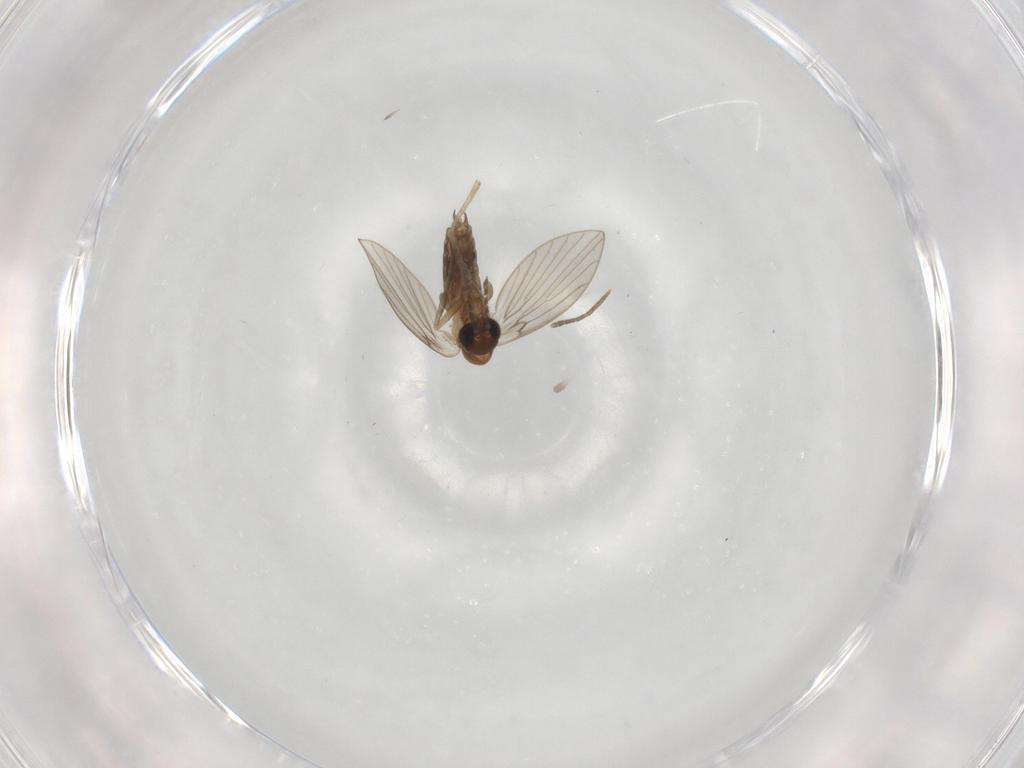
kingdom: Animalia
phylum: Arthropoda
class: Insecta
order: Diptera
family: Psychodidae
